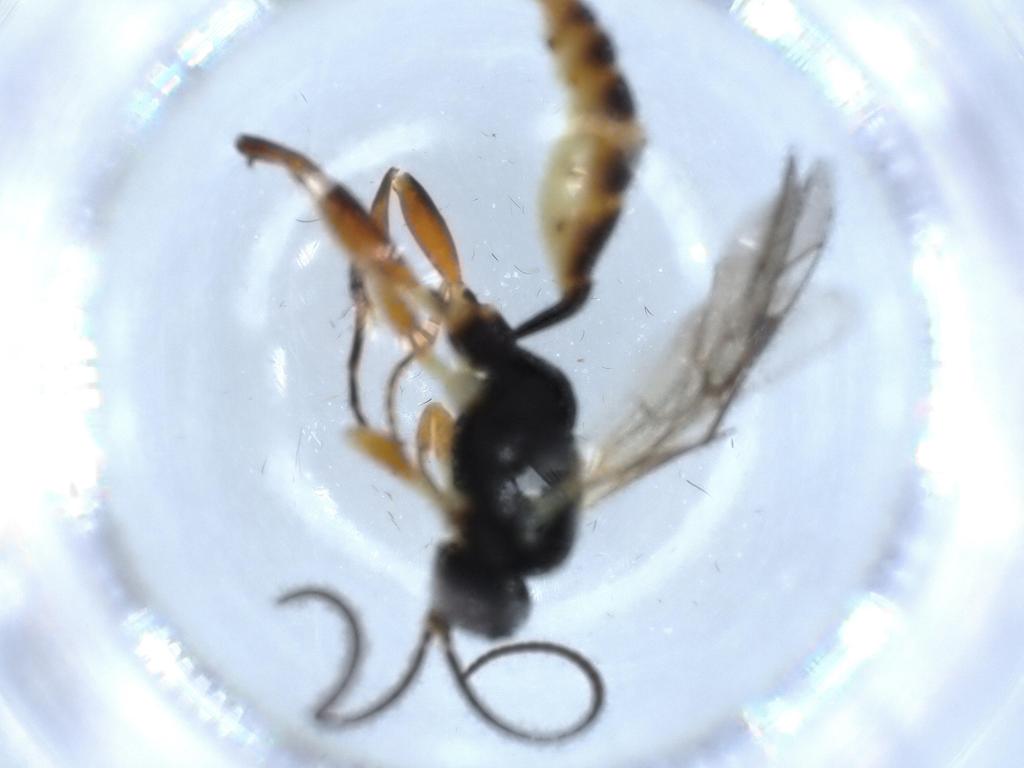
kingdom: Animalia
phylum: Arthropoda
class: Insecta
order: Hymenoptera
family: Ichneumonidae
